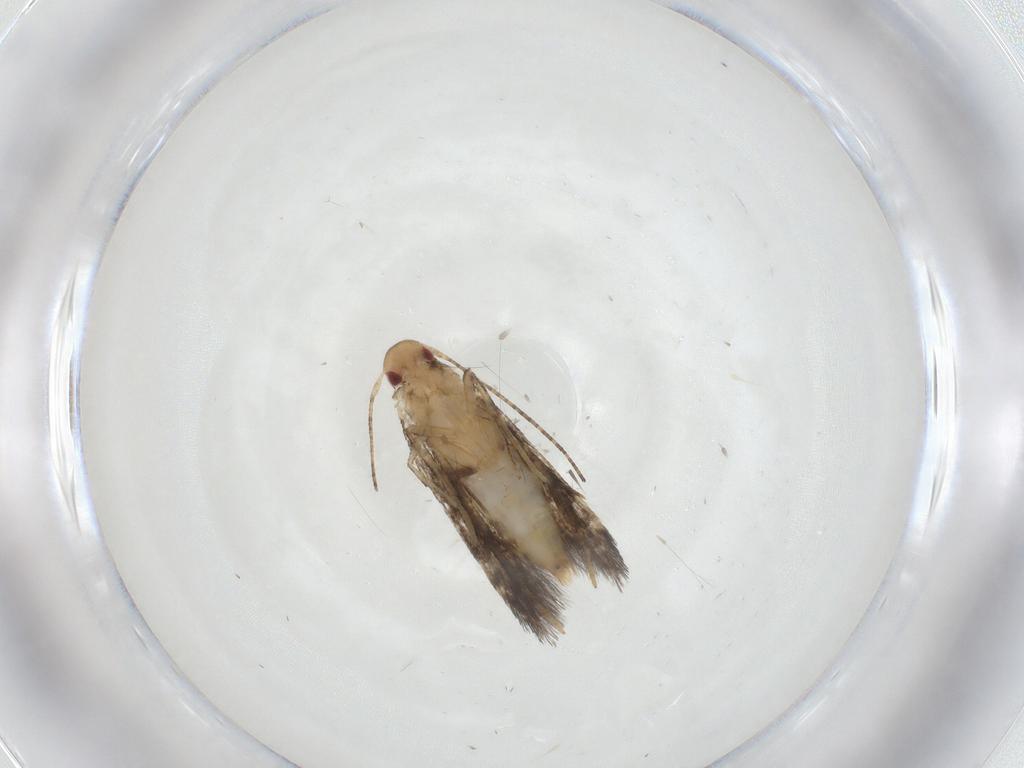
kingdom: Animalia
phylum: Arthropoda
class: Insecta
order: Lepidoptera
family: Momphidae
